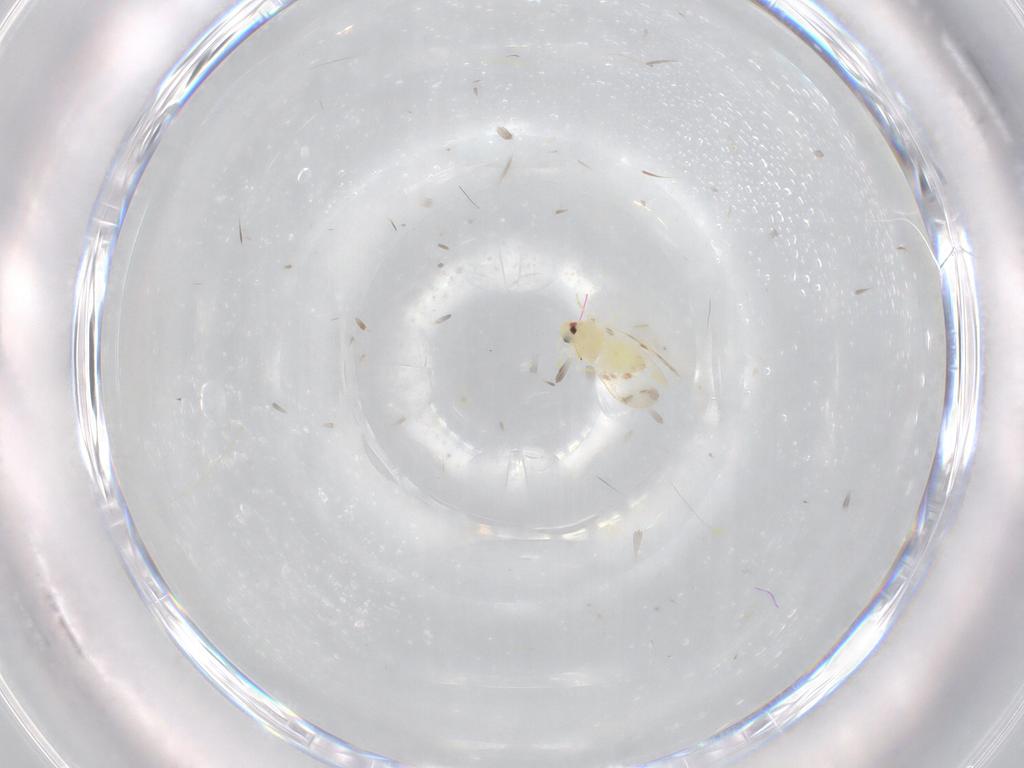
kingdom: Animalia
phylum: Arthropoda
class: Insecta
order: Hemiptera
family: Aleyrodidae
